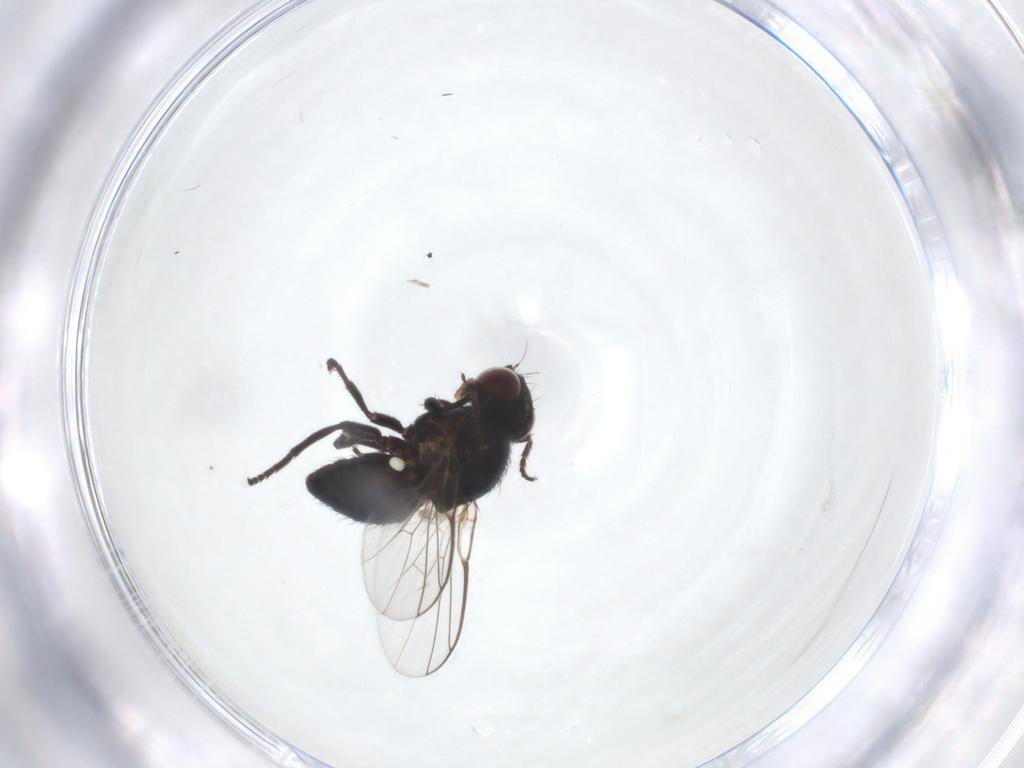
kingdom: Animalia
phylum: Arthropoda
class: Insecta
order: Diptera
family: Agromyzidae
